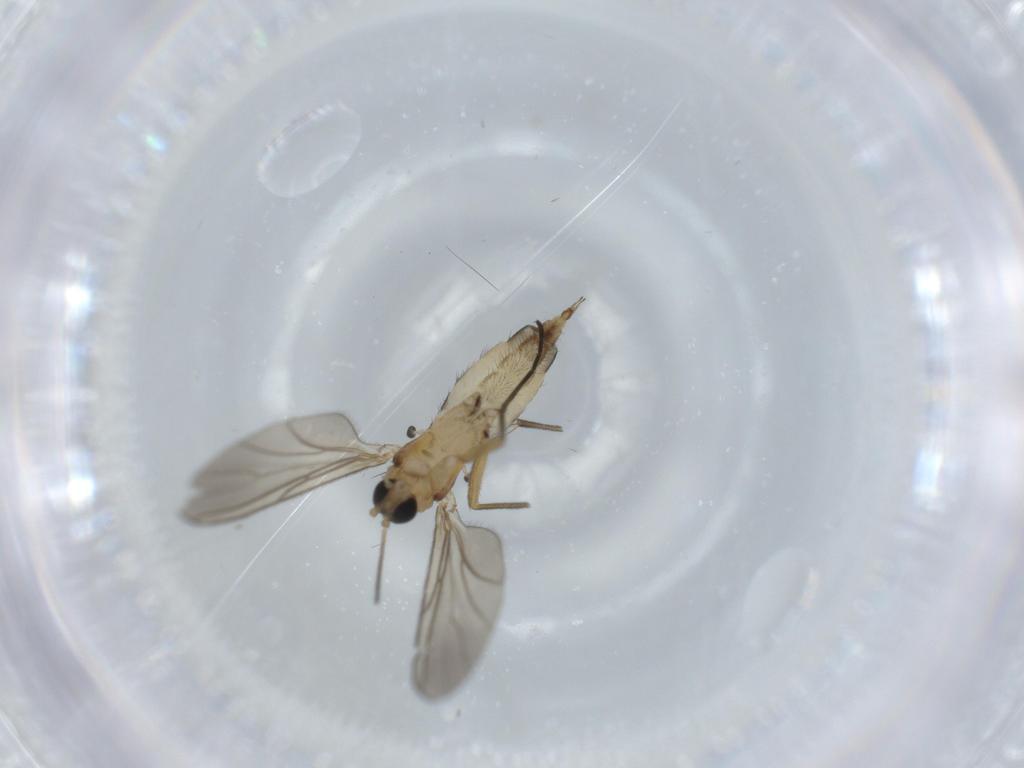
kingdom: Animalia
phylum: Arthropoda
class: Insecta
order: Diptera
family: Sciaridae
